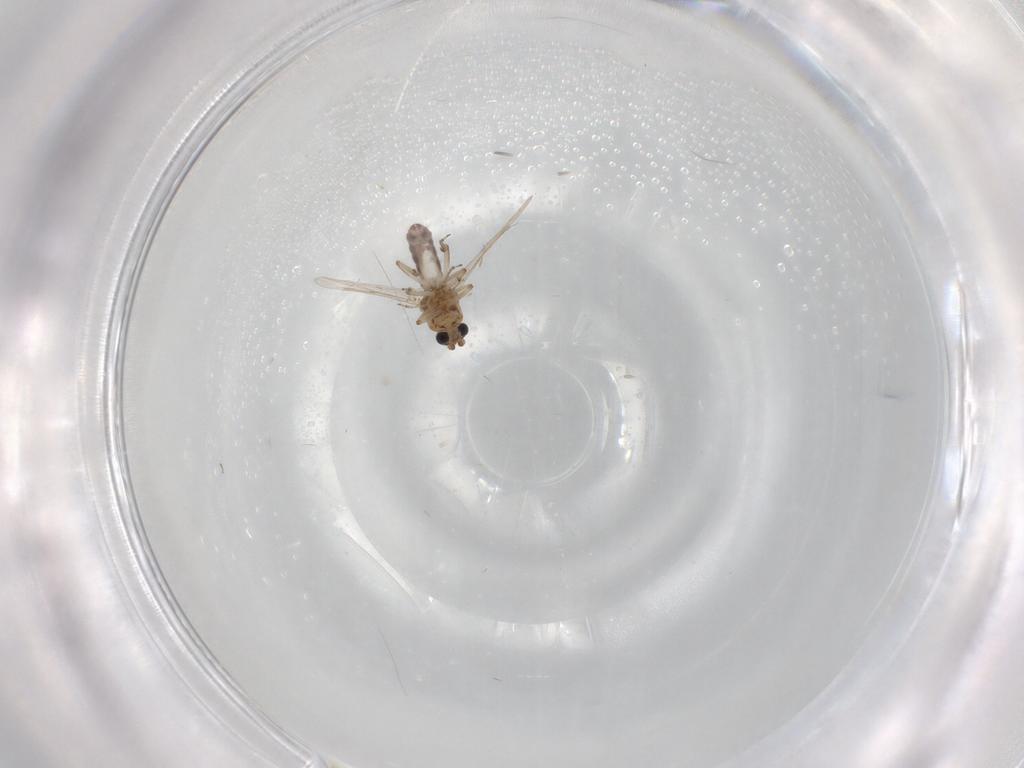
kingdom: Animalia
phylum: Arthropoda
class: Insecta
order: Diptera
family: Ceratopogonidae
